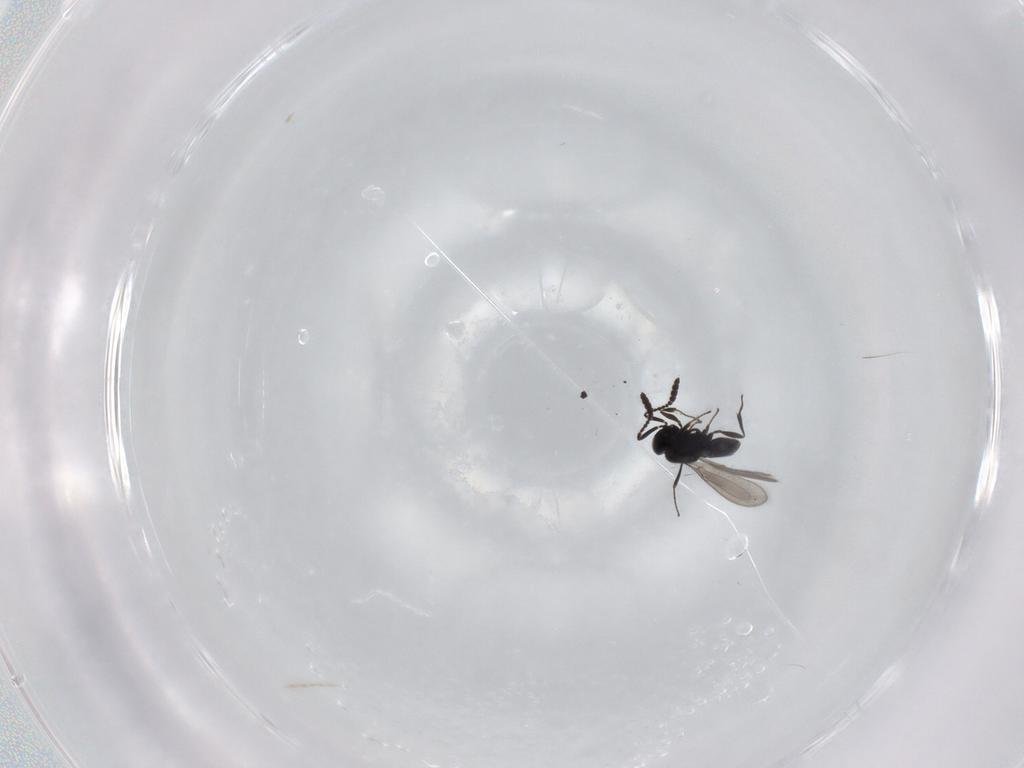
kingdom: Animalia
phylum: Arthropoda
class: Insecta
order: Hymenoptera
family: Scelionidae
